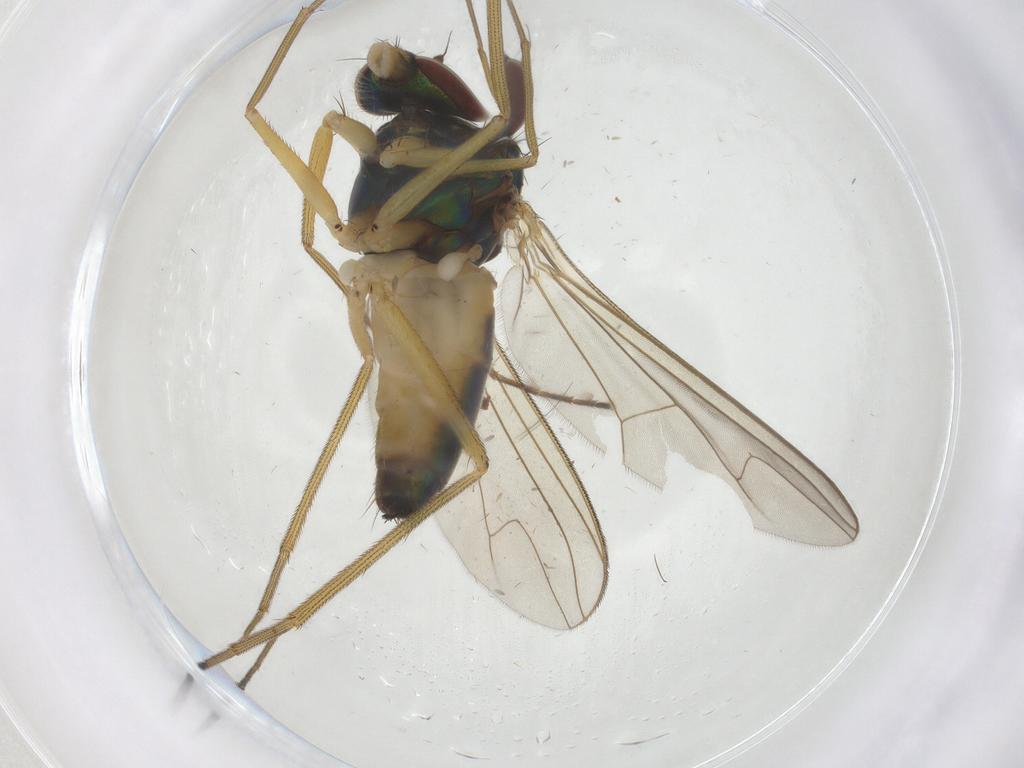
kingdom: Animalia
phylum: Arthropoda
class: Insecta
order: Diptera
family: Dolichopodidae
